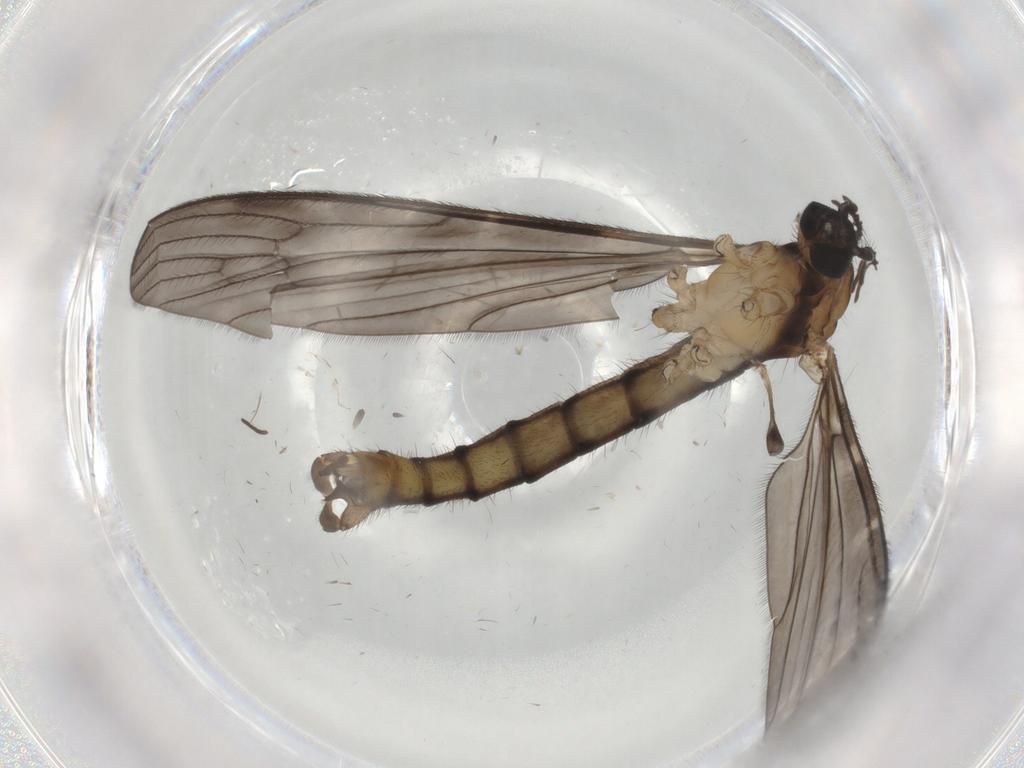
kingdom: Animalia
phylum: Arthropoda
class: Insecta
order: Diptera
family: Milichiidae
